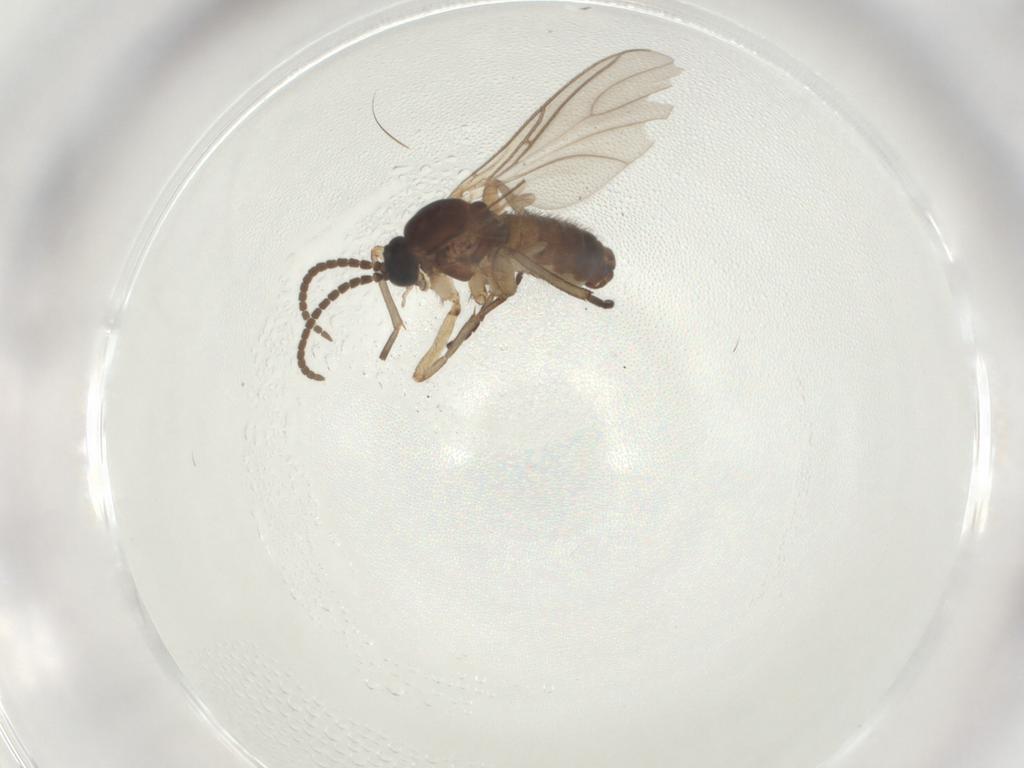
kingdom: Animalia
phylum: Arthropoda
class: Insecta
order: Diptera
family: Sciaridae
